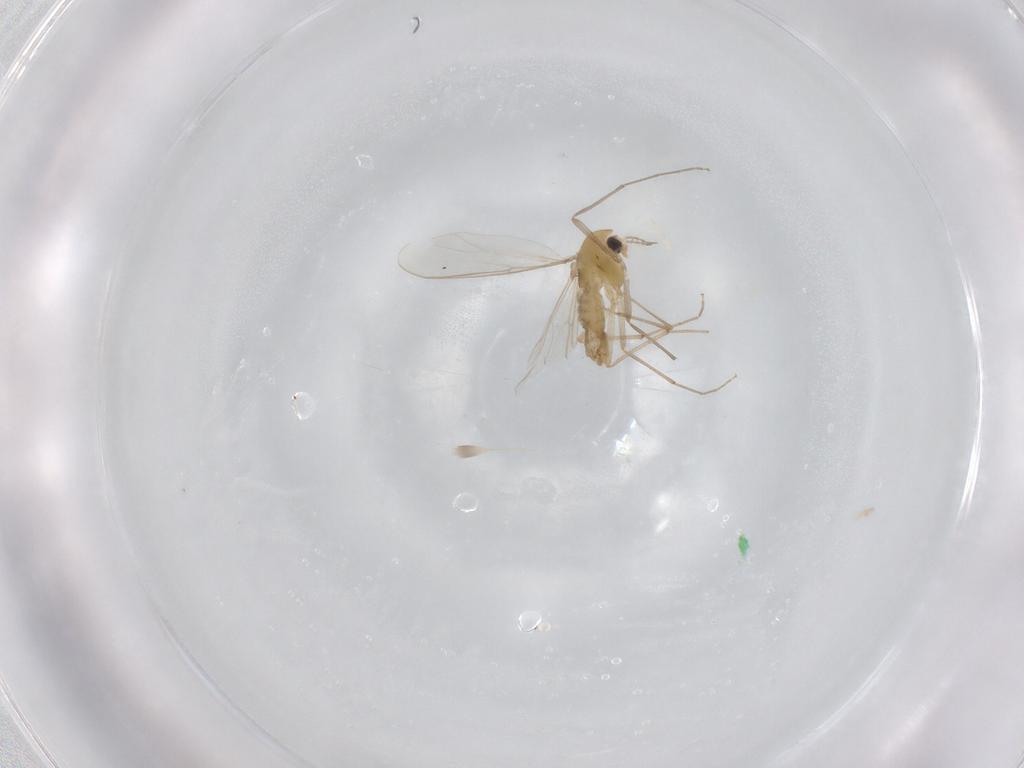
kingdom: Animalia
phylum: Arthropoda
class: Insecta
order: Diptera
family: Chironomidae
